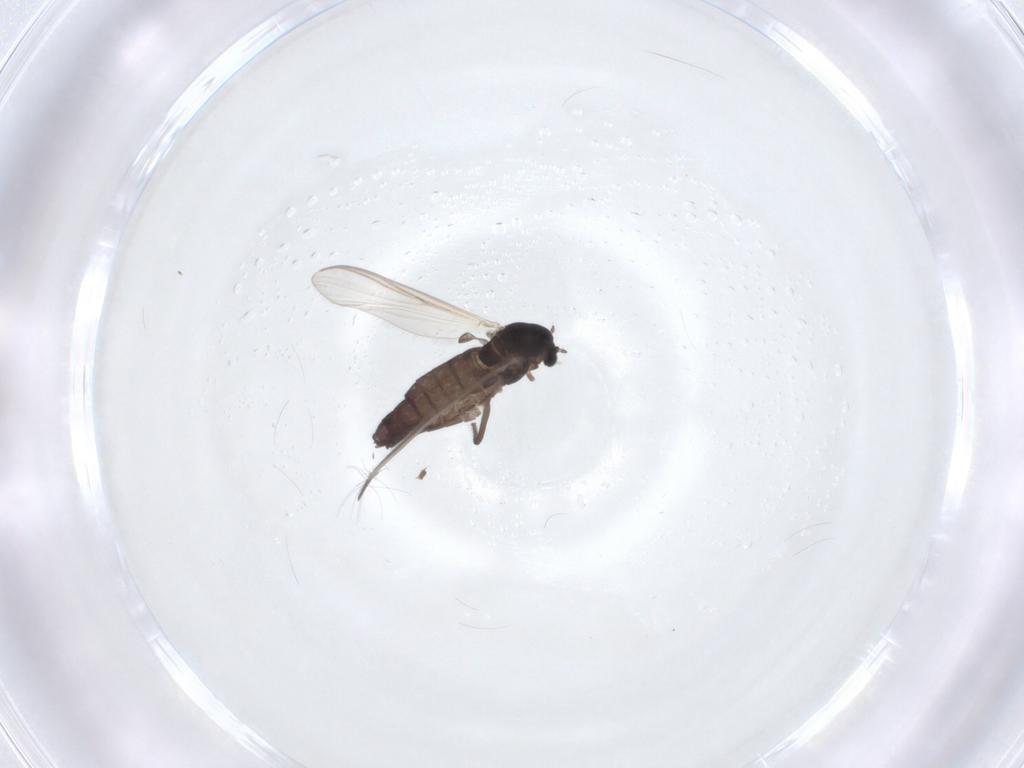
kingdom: Animalia
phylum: Arthropoda
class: Insecta
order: Diptera
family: Chironomidae
